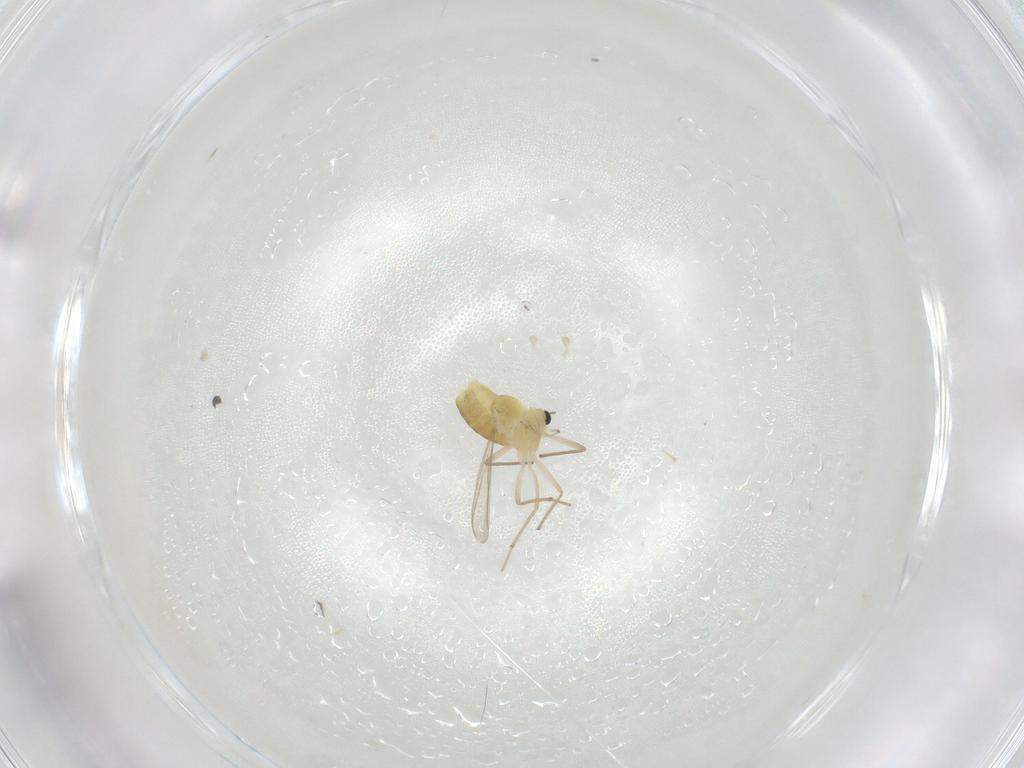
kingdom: Animalia
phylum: Arthropoda
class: Insecta
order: Diptera
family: Chironomidae
